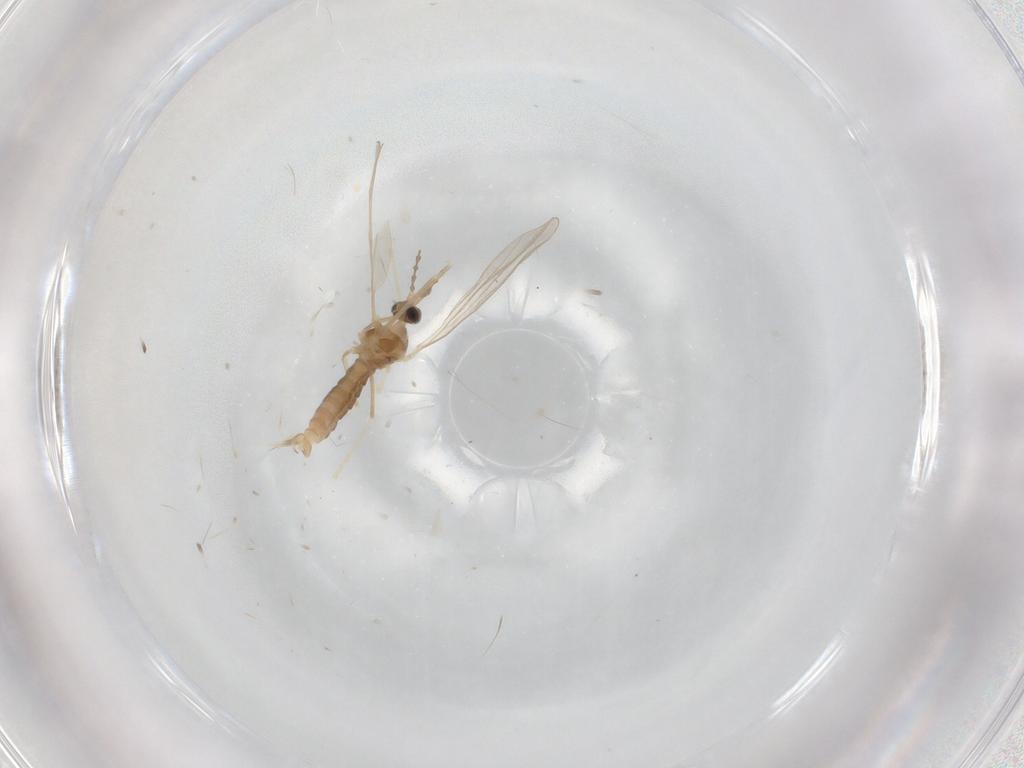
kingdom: Animalia
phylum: Arthropoda
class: Insecta
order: Diptera
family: Cecidomyiidae
